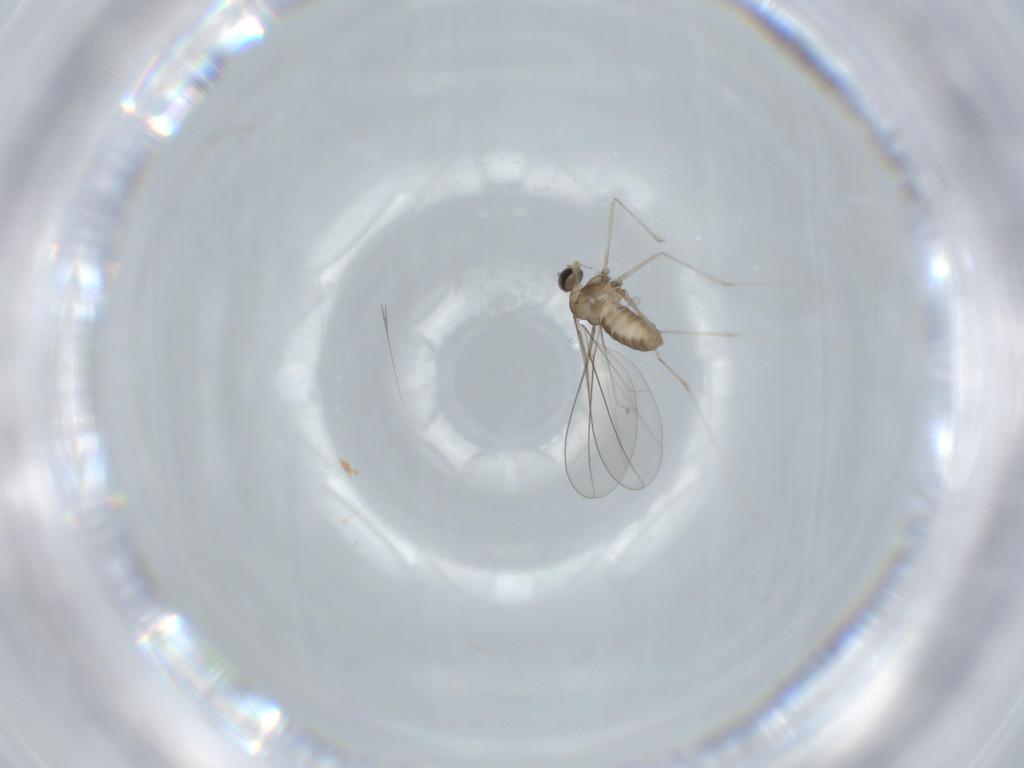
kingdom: Animalia
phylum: Arthropoda
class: Insecta
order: Diptera
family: Cecidomyiidae
